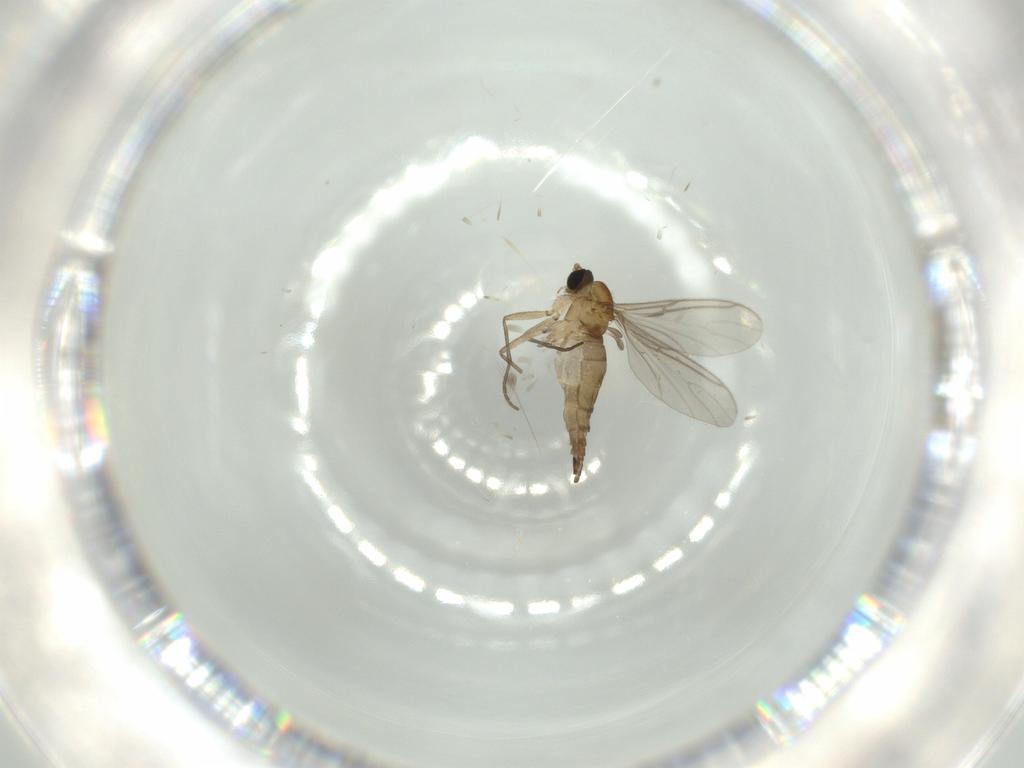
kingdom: Animalia
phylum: Arthropoda
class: Insecta
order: Diptera
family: Sciaridae
